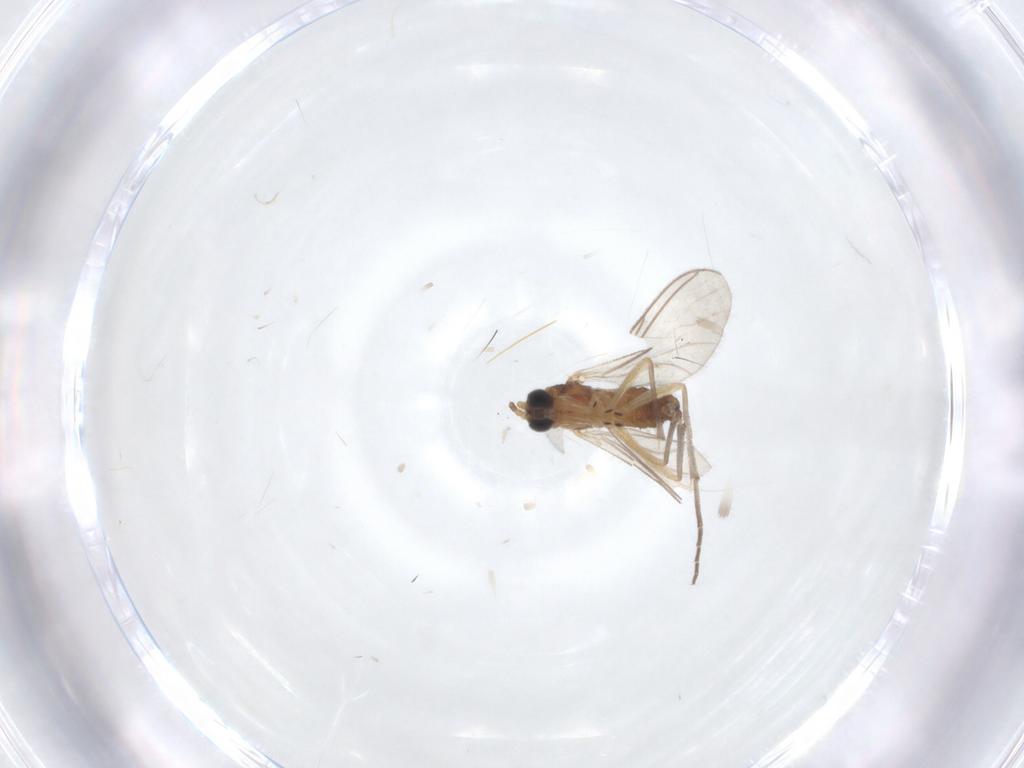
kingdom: Animalia
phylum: Arthropoda
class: Insecta
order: Diptera
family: Sciaridae
